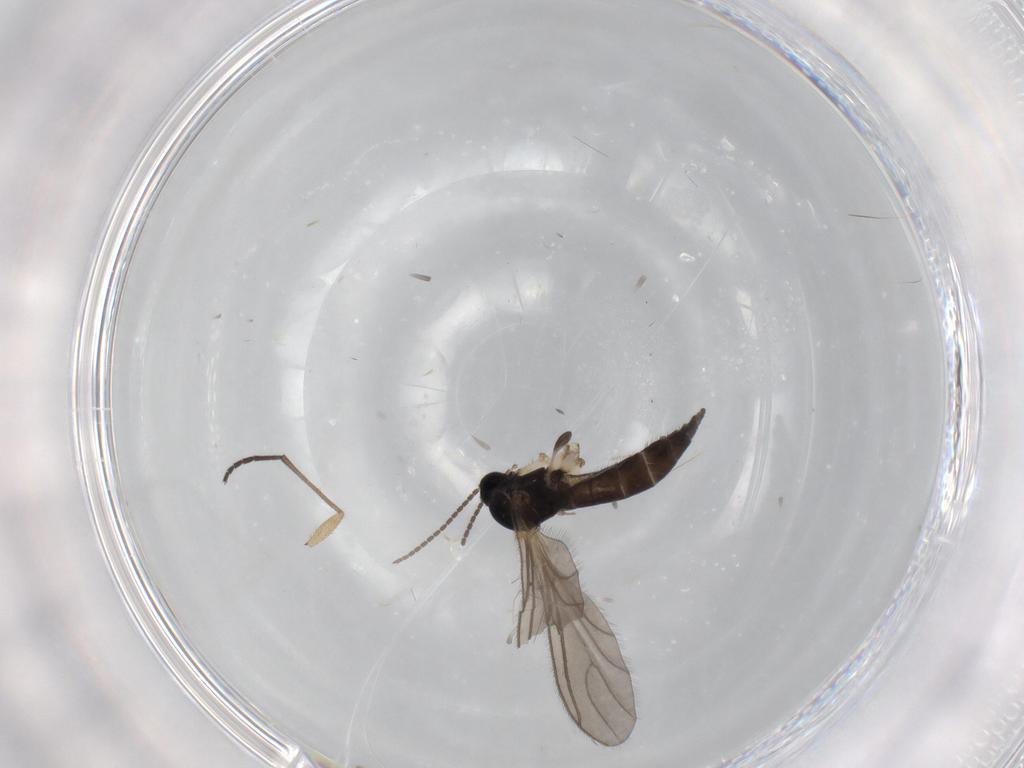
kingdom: Animalia
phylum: Arthropoda
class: Insecta
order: Diptera
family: Sciaridae
